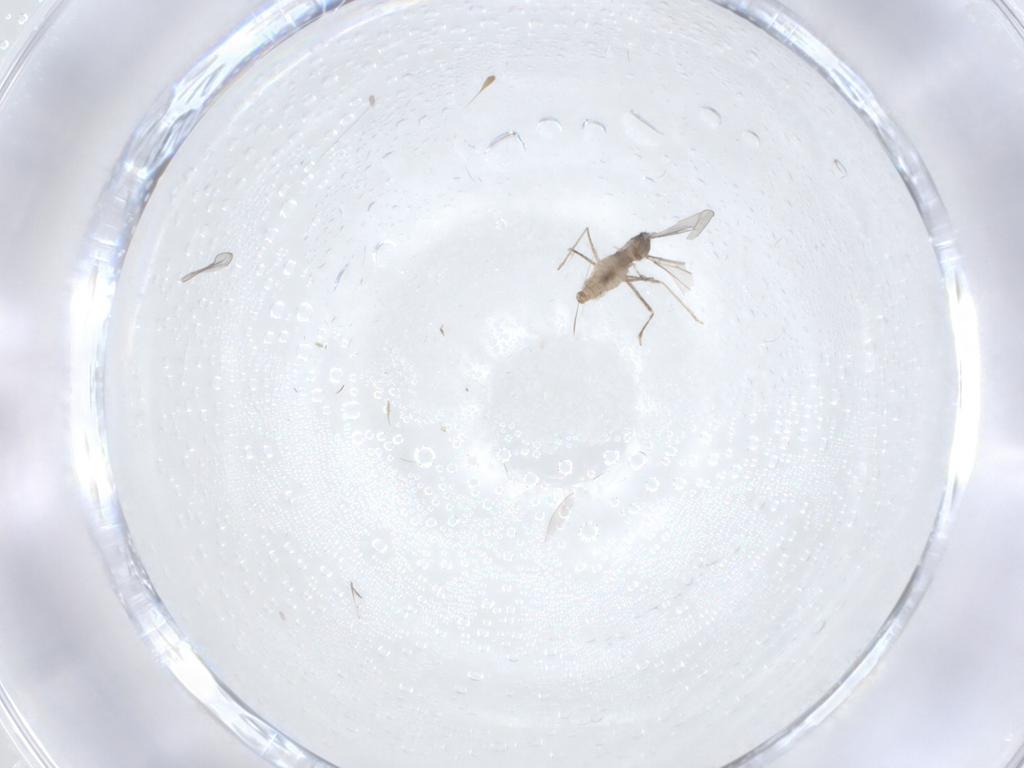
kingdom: Animalia
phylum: Arthropoda
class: Insecta
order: Diptera
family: Cecidomyiidae
